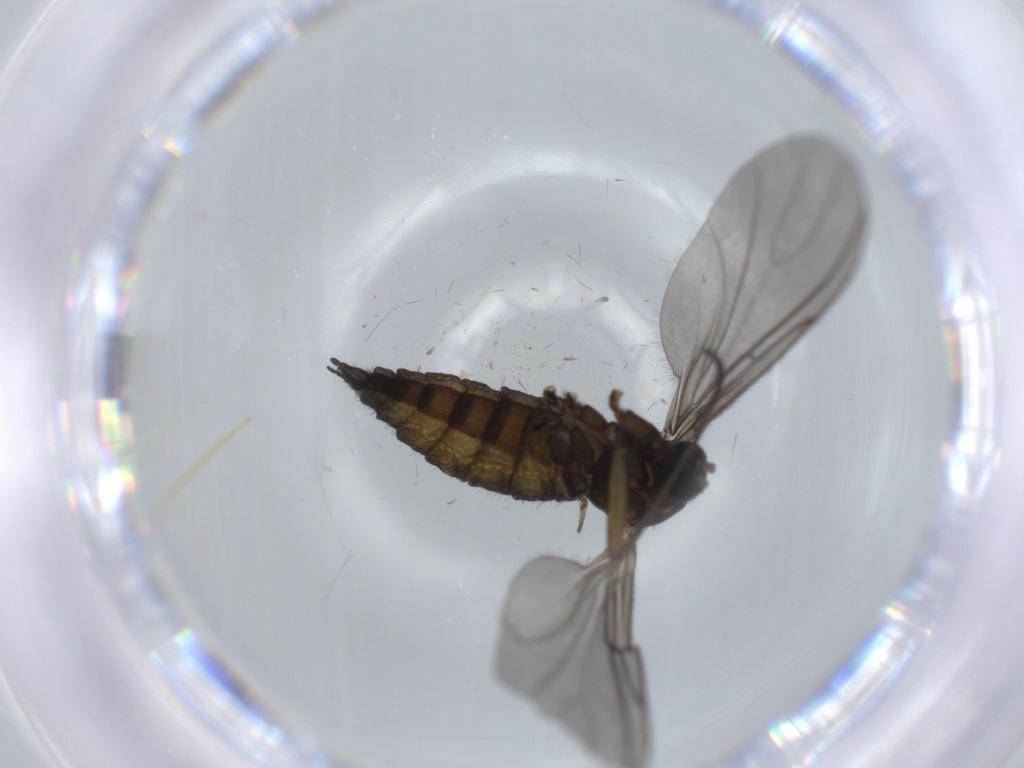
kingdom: Animalia
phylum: Arthropoda
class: Insecta
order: Diptera
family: Sciaridae
